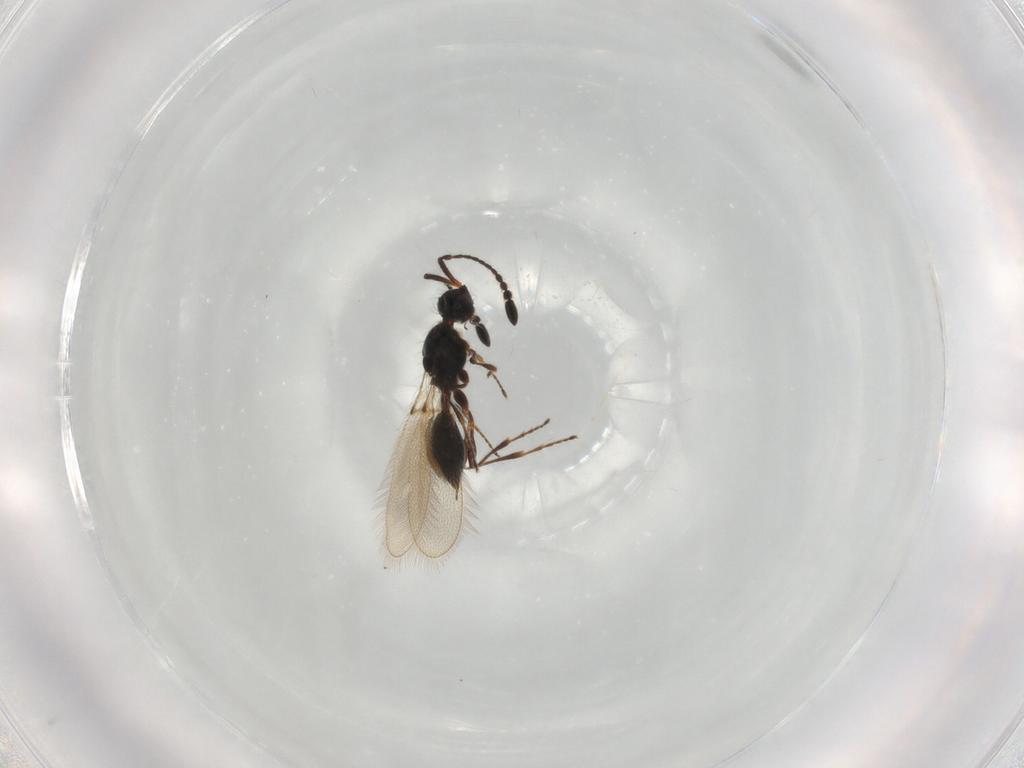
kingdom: Animalia
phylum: Arthropoda
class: Insecta
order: Hymenoptera
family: Diapriidae
